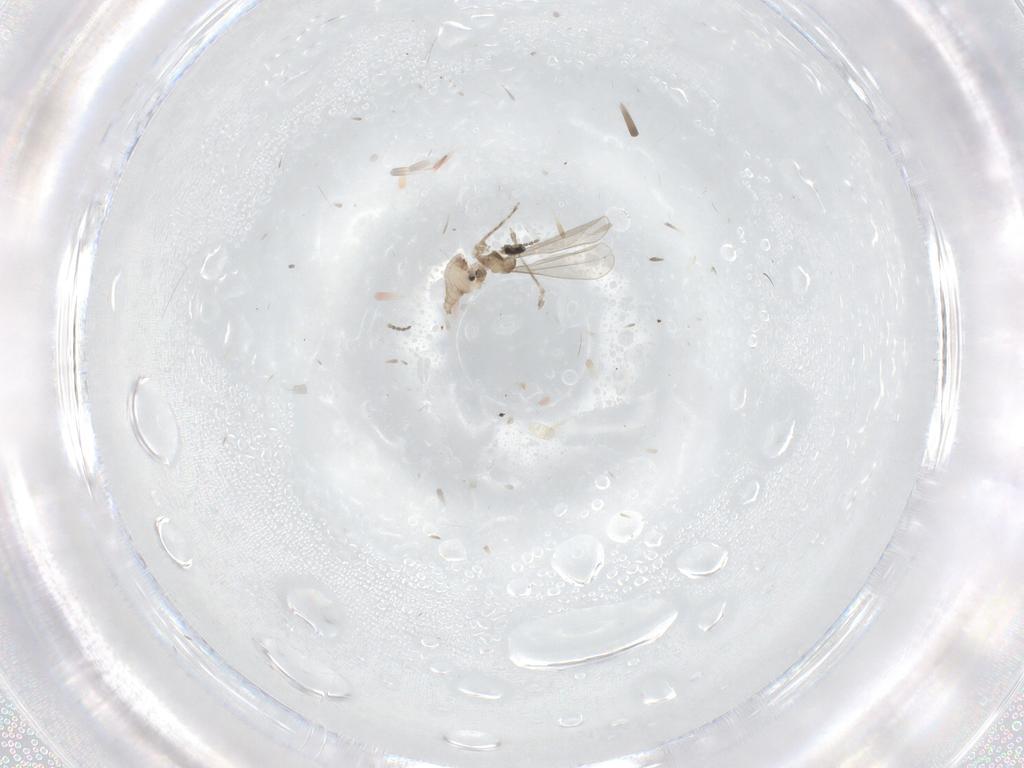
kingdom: Animalia
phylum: Arthropoda
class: Insecta
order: Diptera
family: Cecidomyiidae
